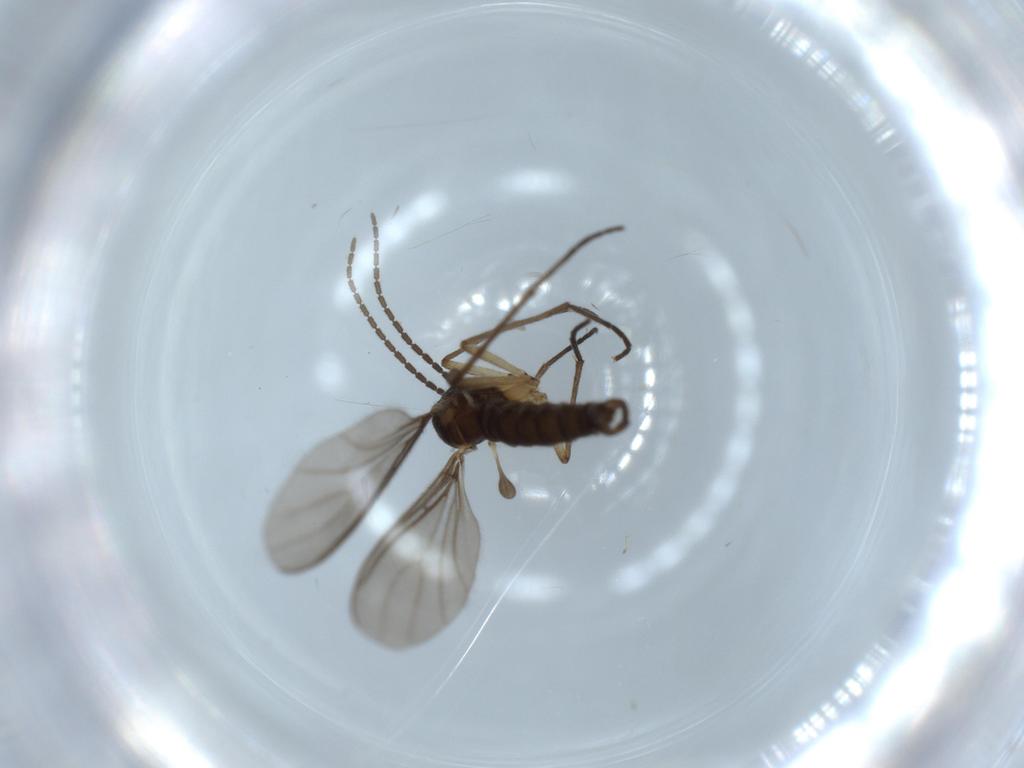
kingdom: Animalia
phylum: Arthropoda
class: Insecta
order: Diptera
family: Sciaridae
